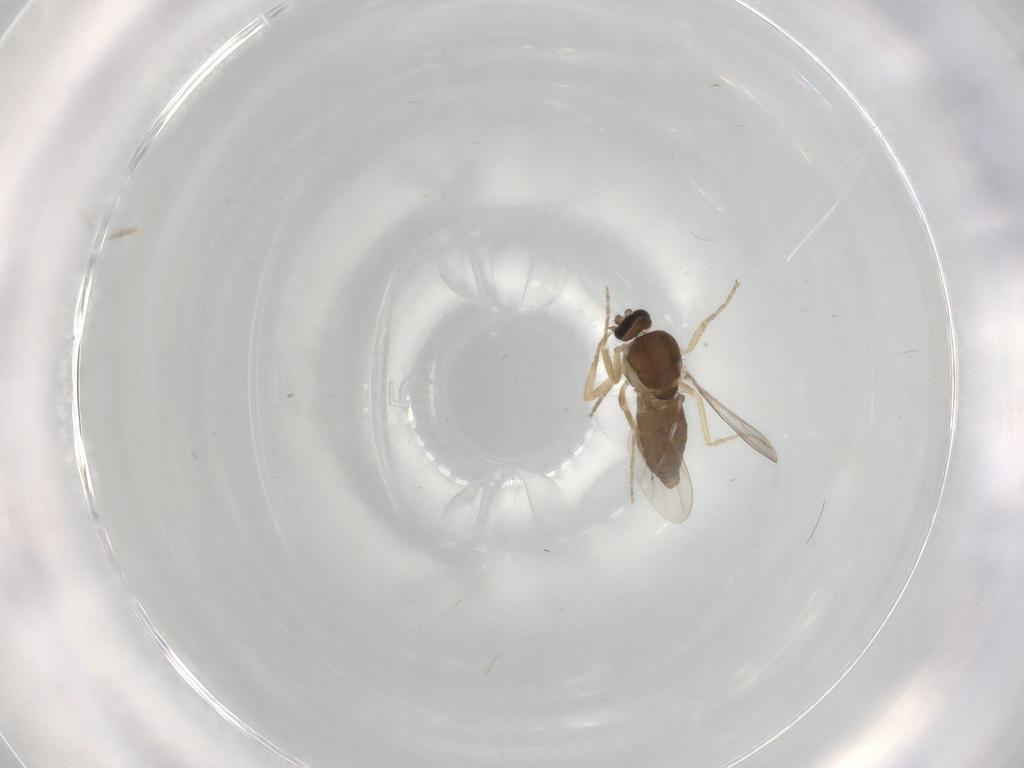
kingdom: Animalia
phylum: Arthropoda
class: Insecta
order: Diptera
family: Ceratopogonidae
